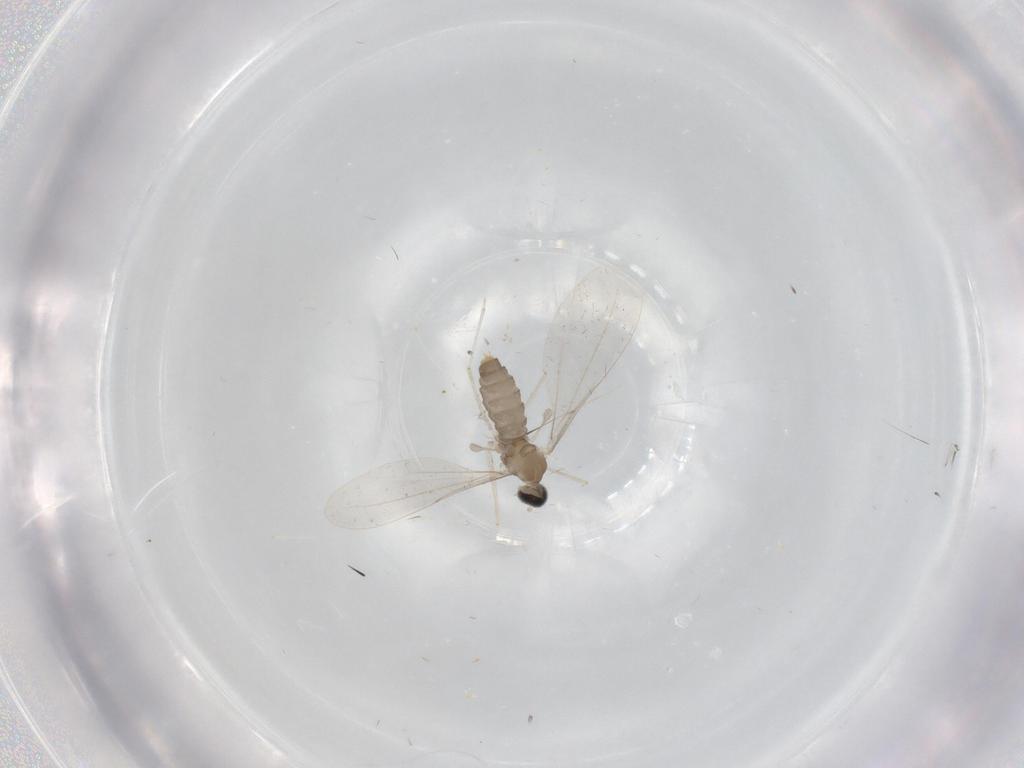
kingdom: Animalia
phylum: Arthropoda
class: Insecta
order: Diptera
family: Cecidomyiidae
